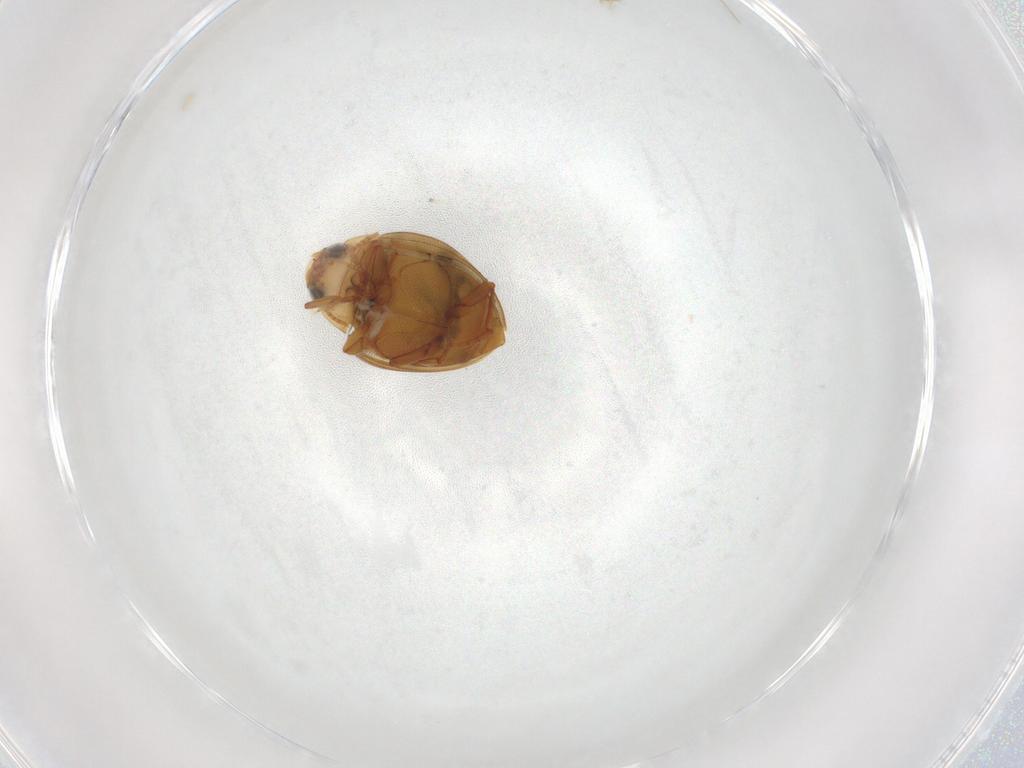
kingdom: Animalia
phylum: Arthropoda
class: Insecta
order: Coleoptera
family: Dytiscidae
